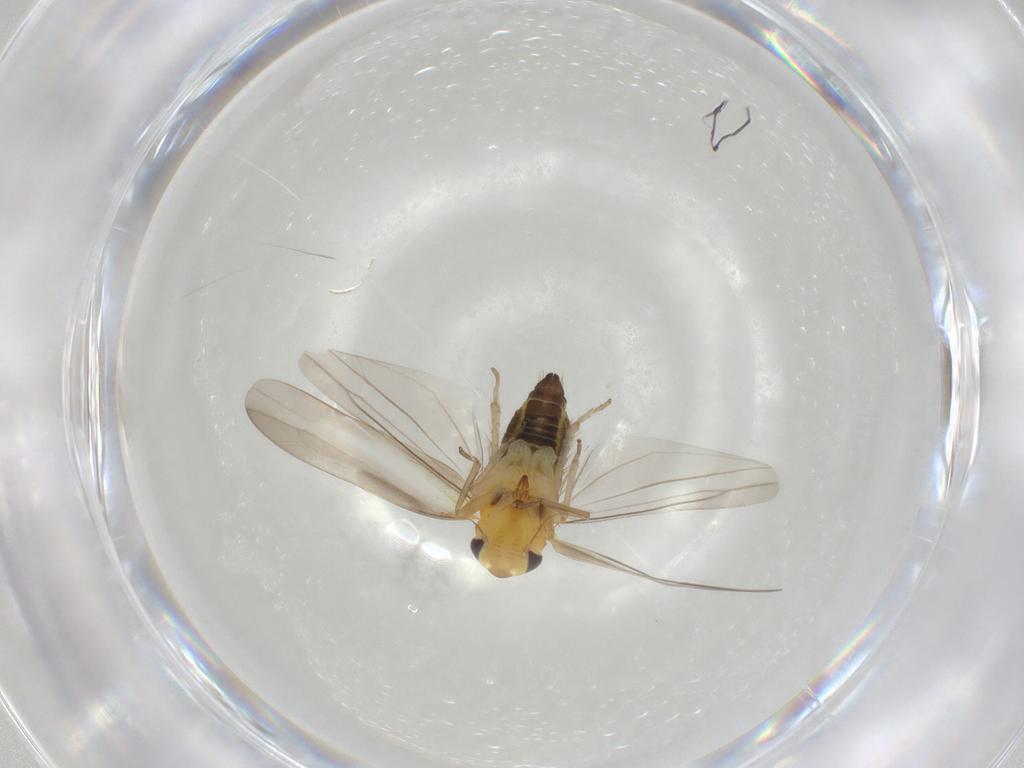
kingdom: Animalia
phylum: Arthropoda
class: Insecta
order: Hemiptera
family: Cicadellidae
